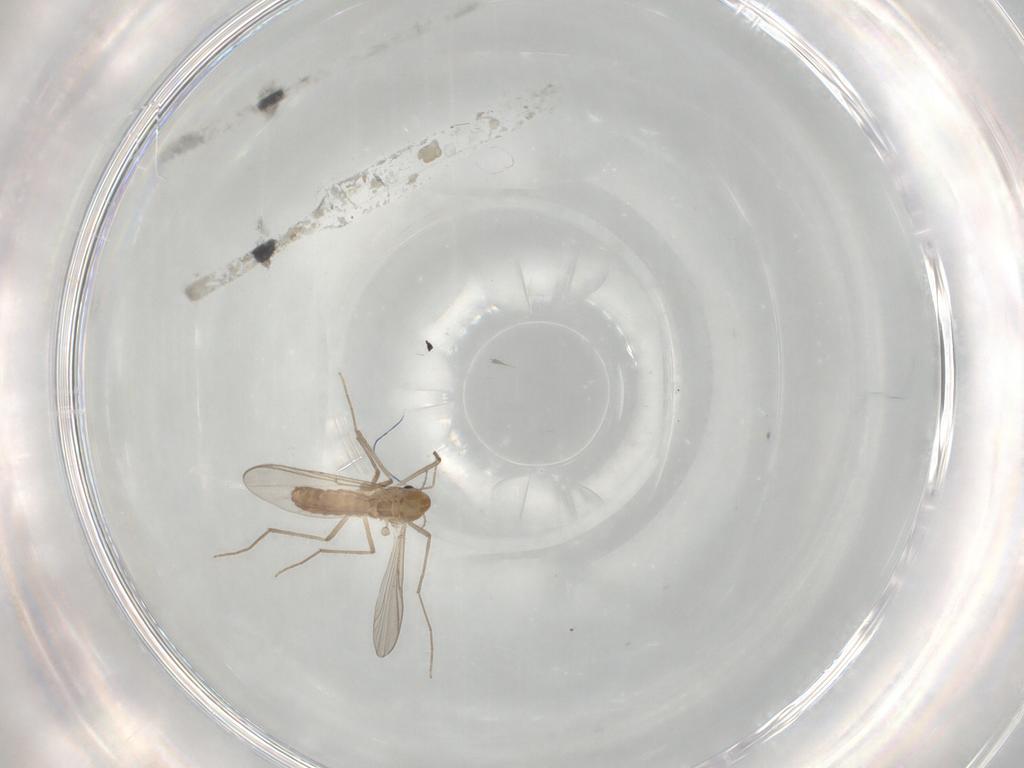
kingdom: Animalia
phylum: Arthropoda
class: Insecta
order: Diptera
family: Chironomidae
